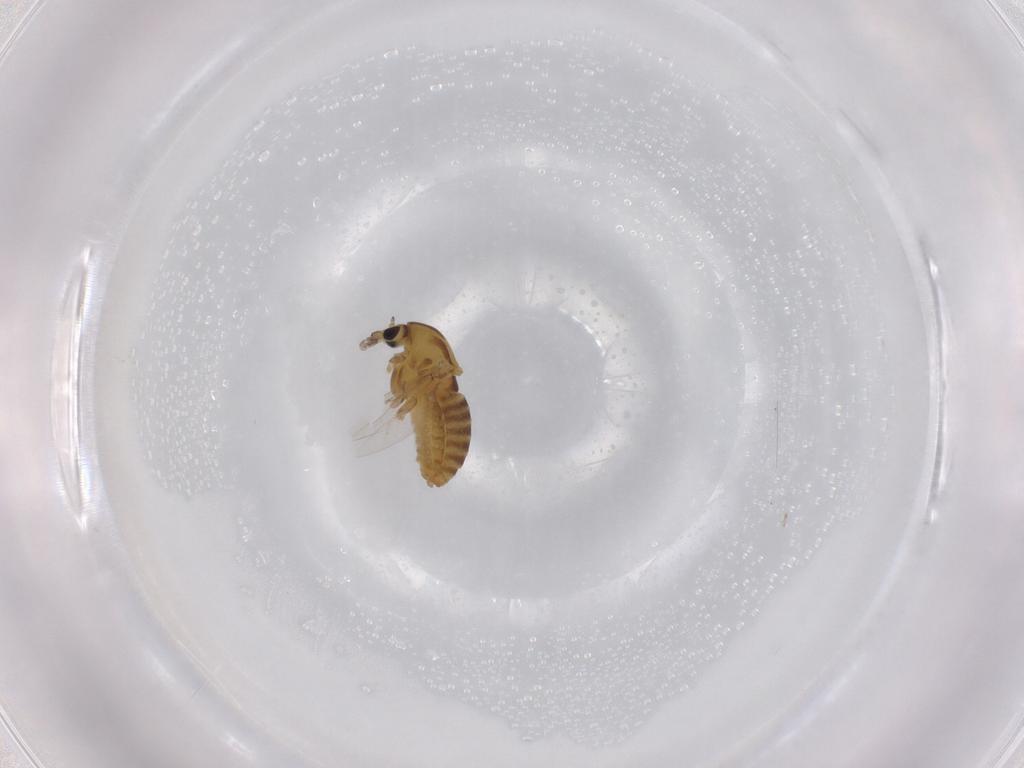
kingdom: Animalia
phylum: Arthropoda
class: Insecta
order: Diptera
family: Chironomidae
